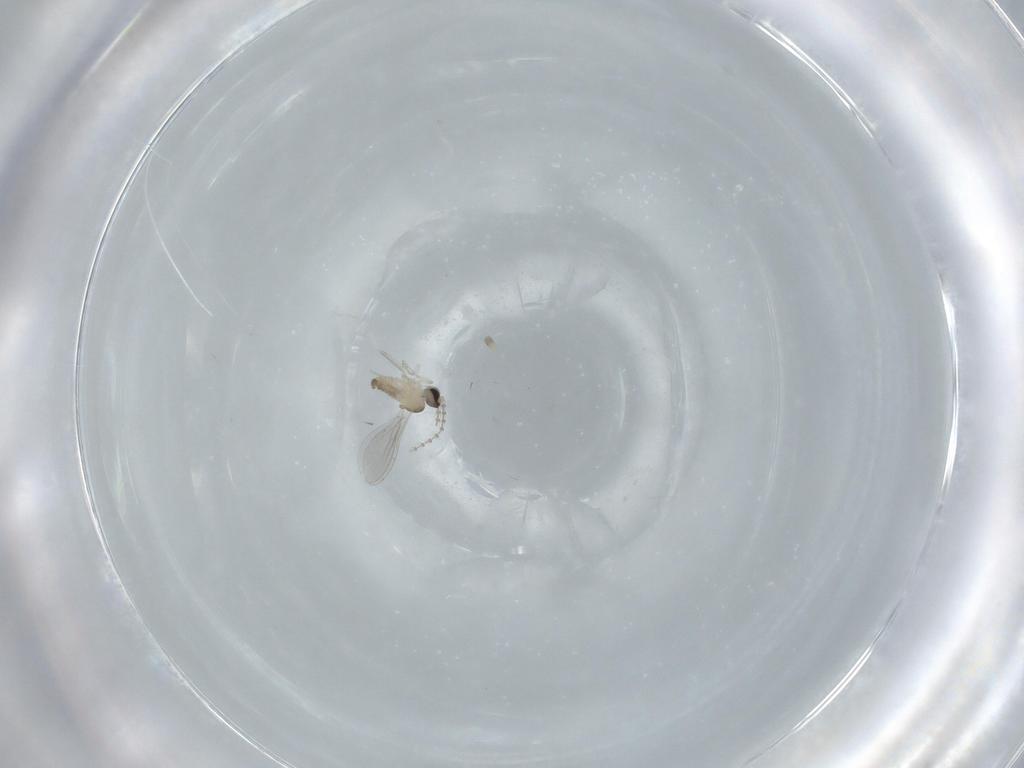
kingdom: Animalia
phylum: Arthropoda
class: Insecta
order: Diptera
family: Cecidomyiidae
